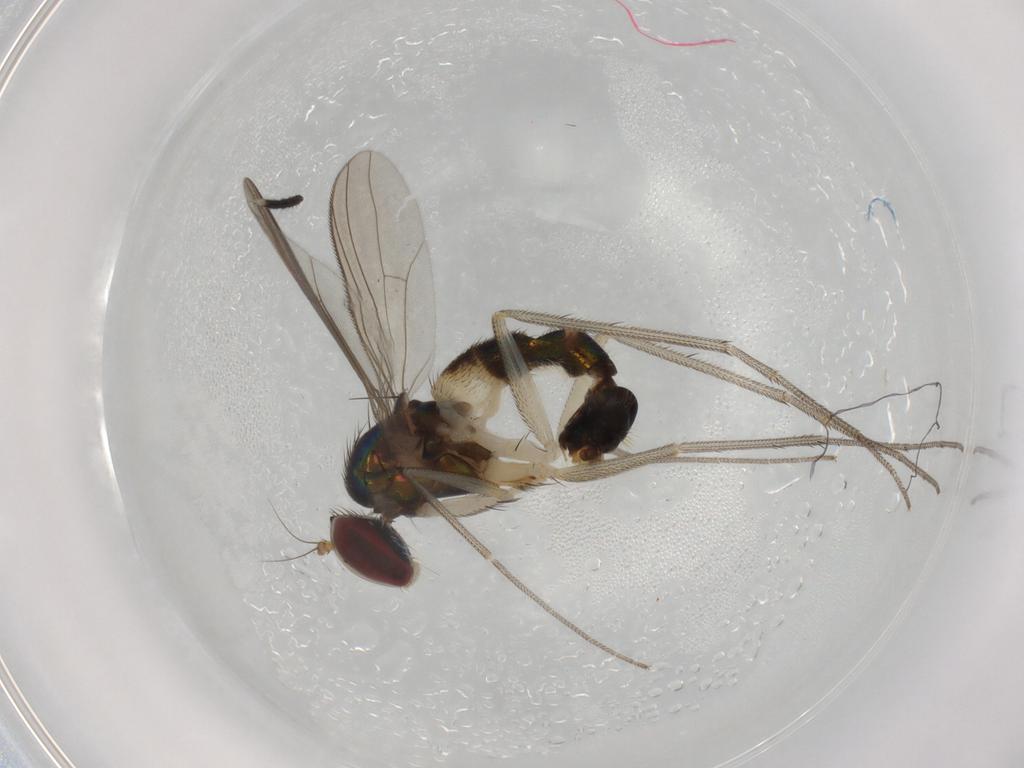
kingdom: Animalia
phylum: Arthropoda
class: Insecta
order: Diptera
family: Anisopodidae
